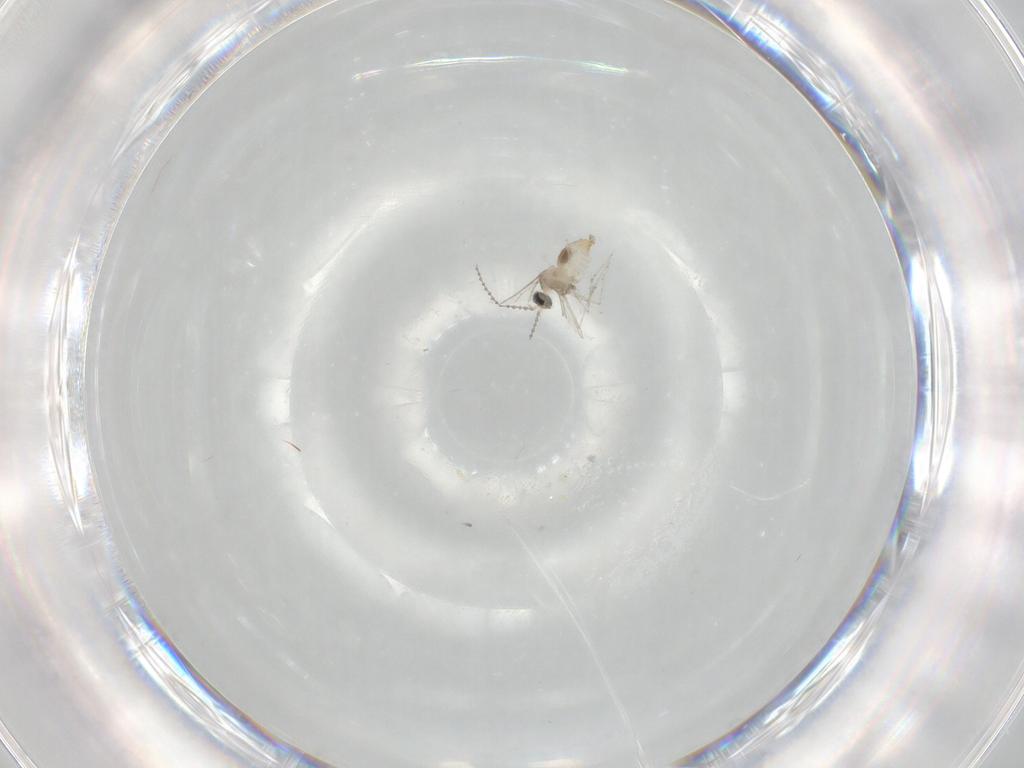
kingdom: Animalia
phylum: Arthropoda
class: Insecta
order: Diptera
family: Cecidomyiidae
